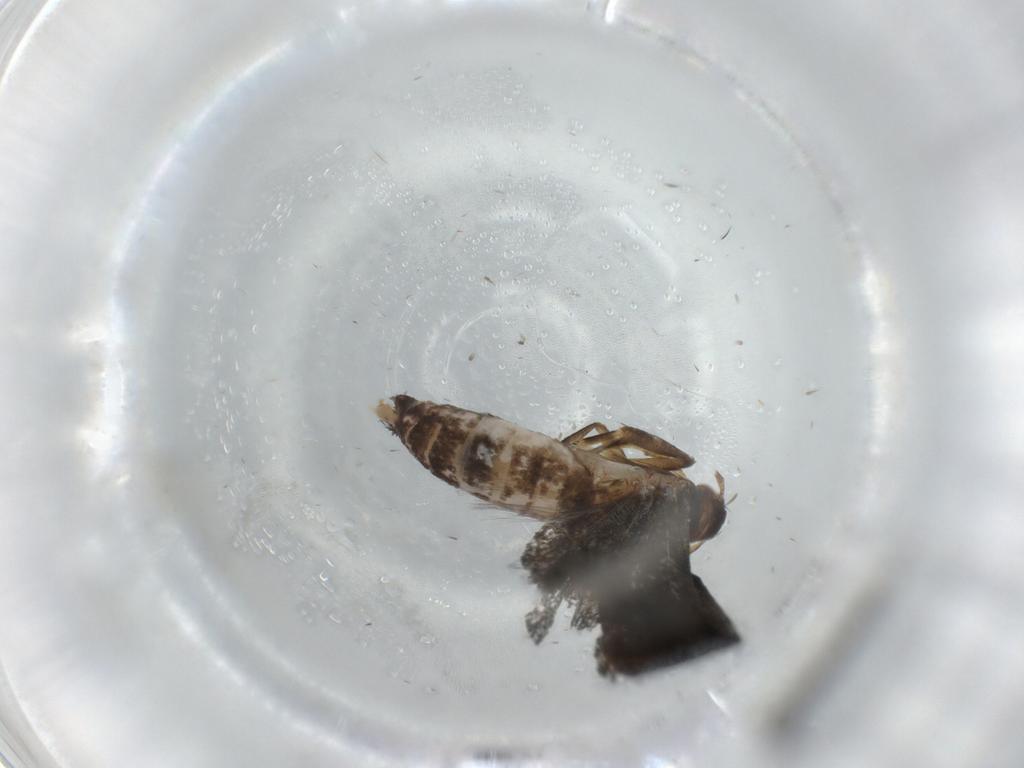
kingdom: Animalia
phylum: Arthropoda
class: Insecta
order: Lepidoptera
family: Gelechiidae
